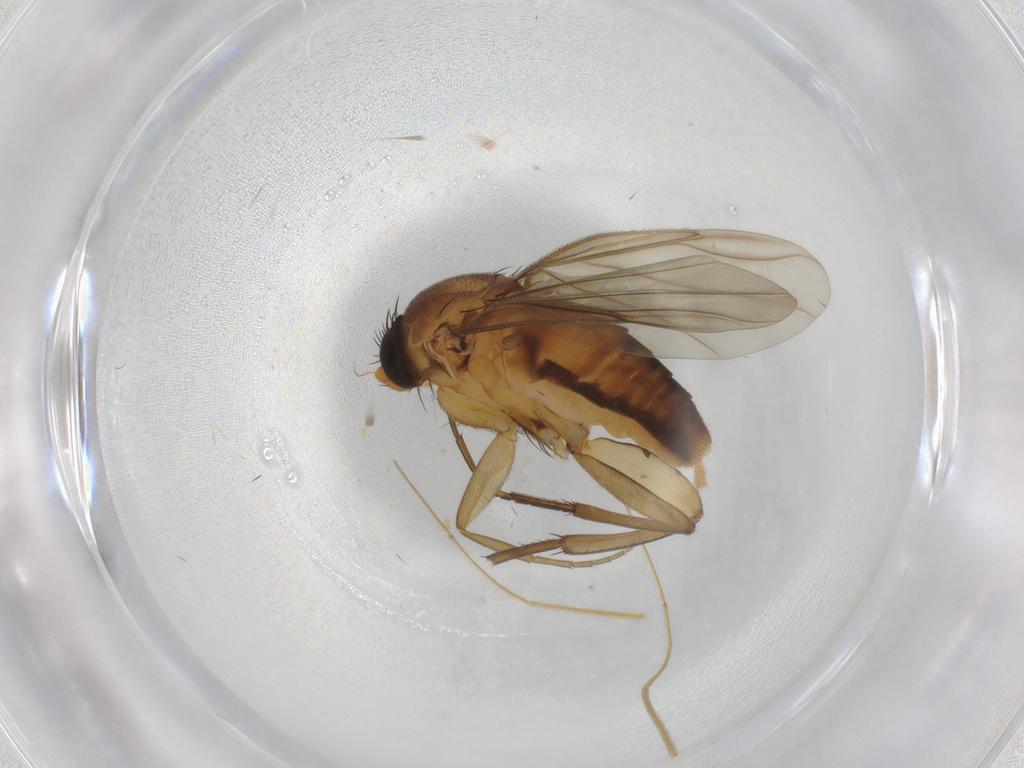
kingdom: Animalia
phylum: Arthropoda
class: Insecta
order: Diptera
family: Phoridae
